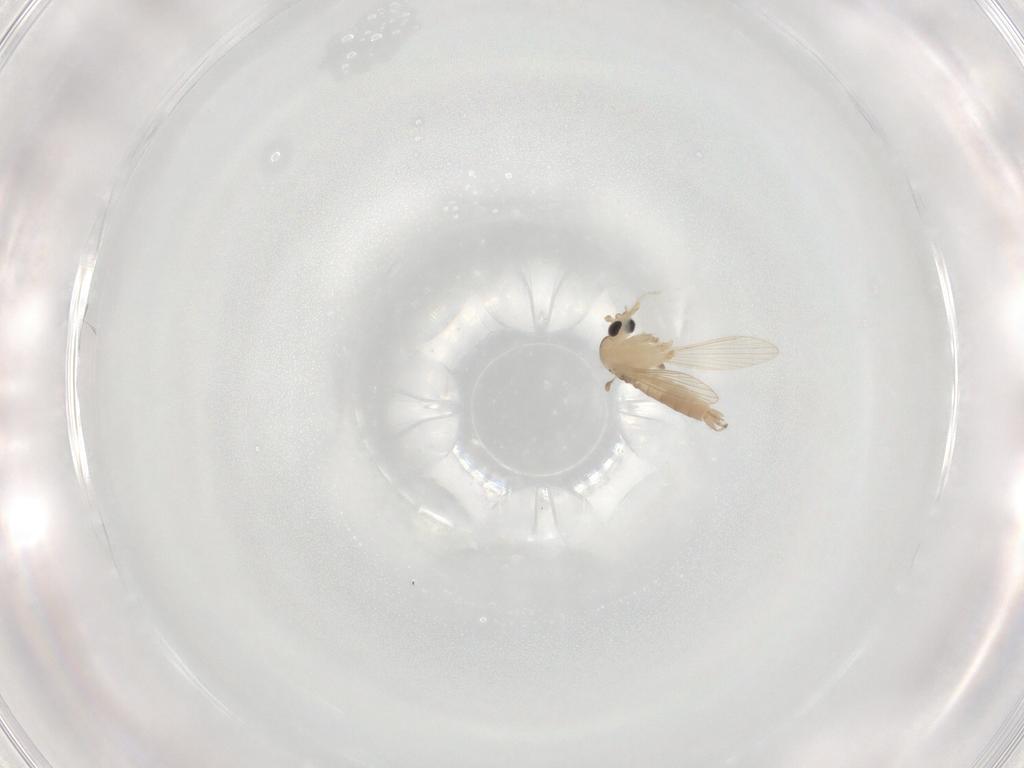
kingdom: Animalia
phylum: Arthropoda
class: Insecta
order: Diptera
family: Psychodidae
